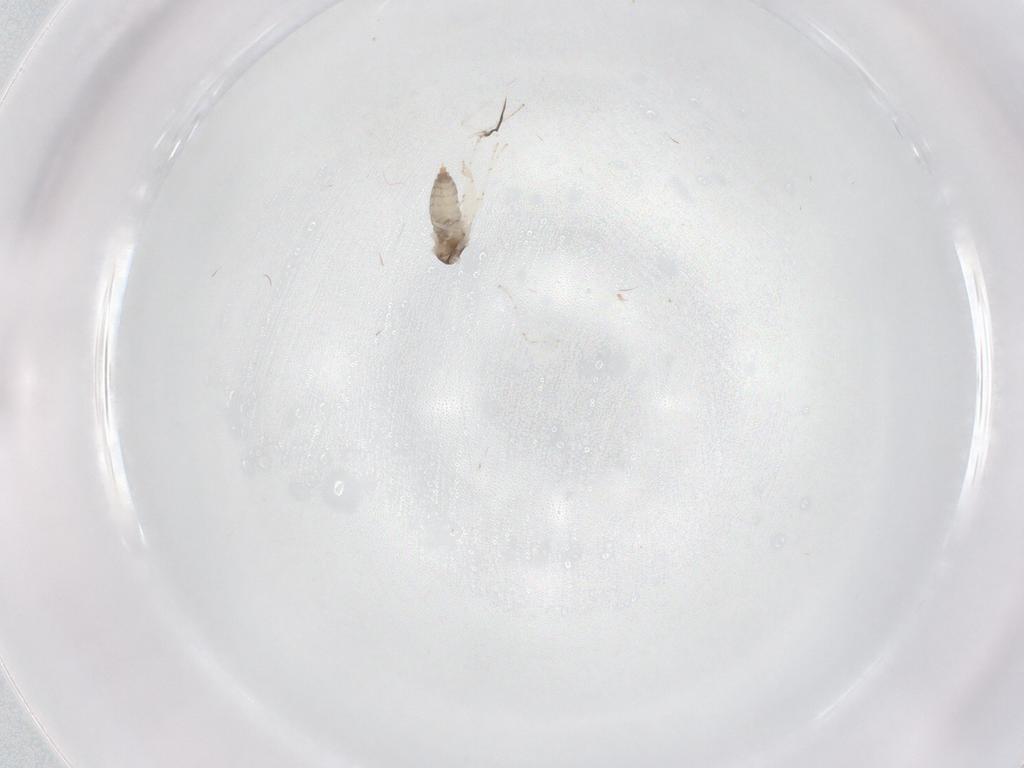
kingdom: Animalia
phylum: Arthropoda
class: Insecta
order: Diptera
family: Cecidomyiidae
